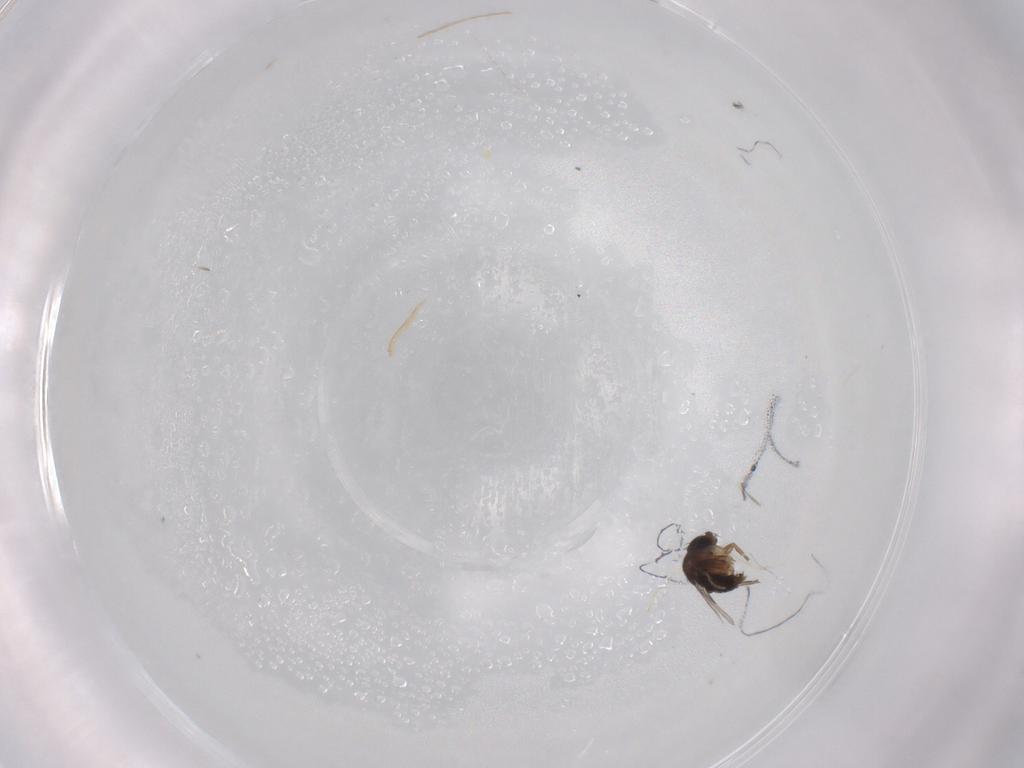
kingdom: Animalia
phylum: Arthropoda
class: Insecta
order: Diptera
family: Phoridae
